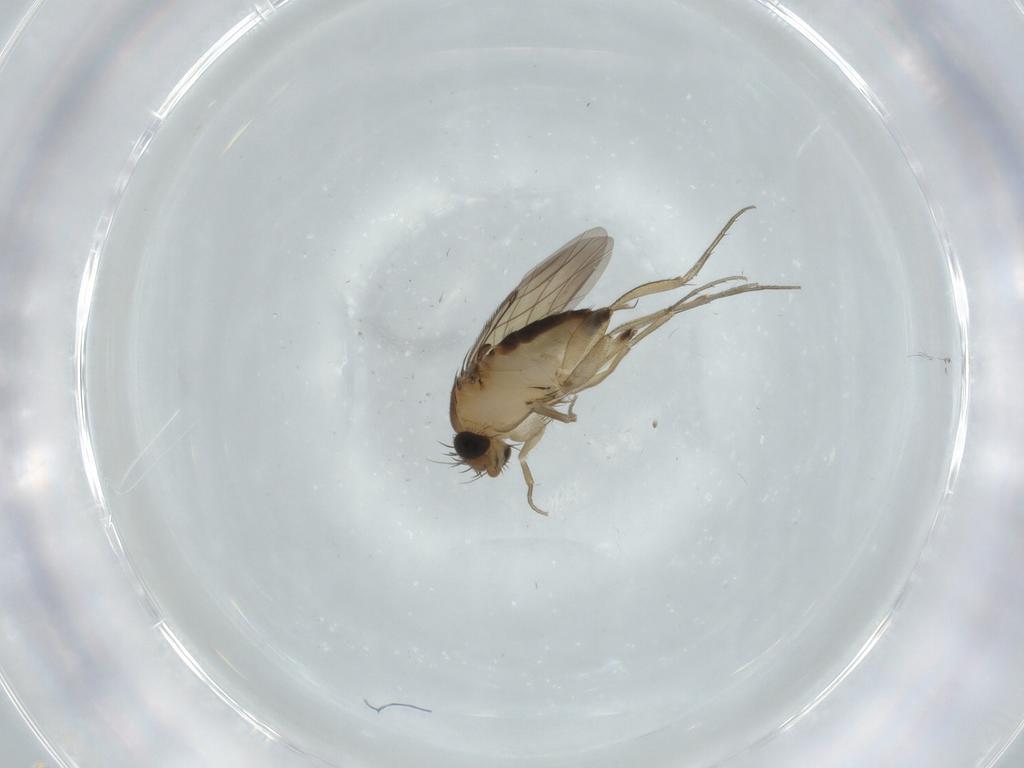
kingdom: Animalia
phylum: Arthropoda
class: Insecta
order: Diptera
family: Phoridae
